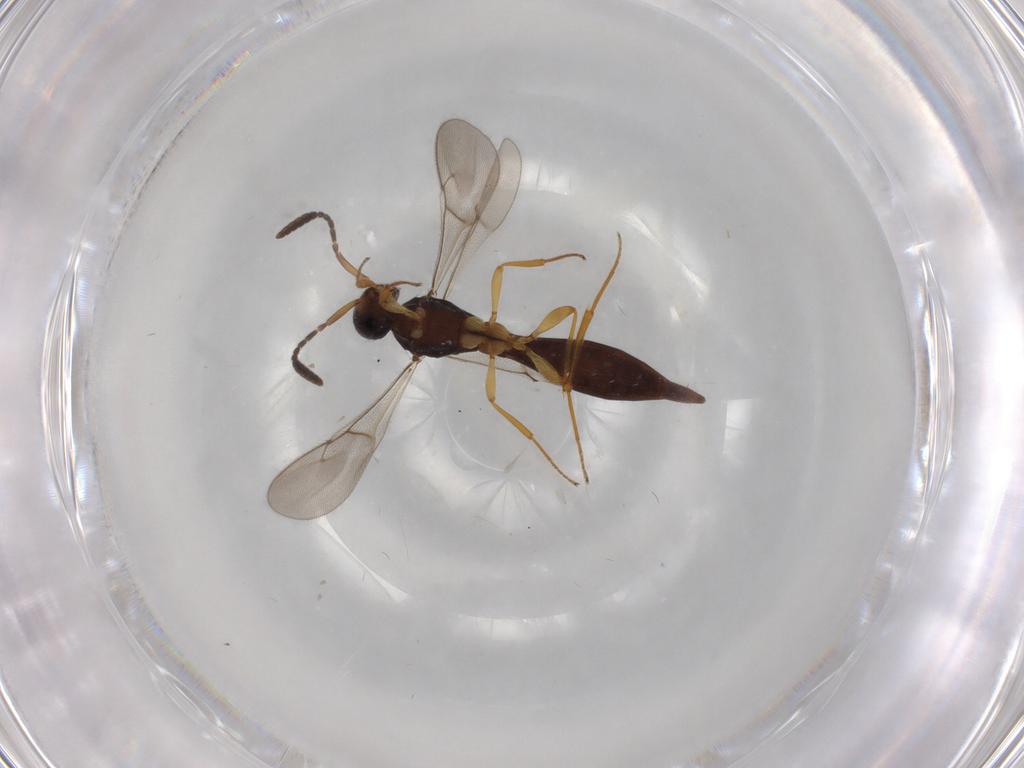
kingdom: Animalia
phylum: Arthropoda
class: Insecta
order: Hymenoptera
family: Scelionidae
